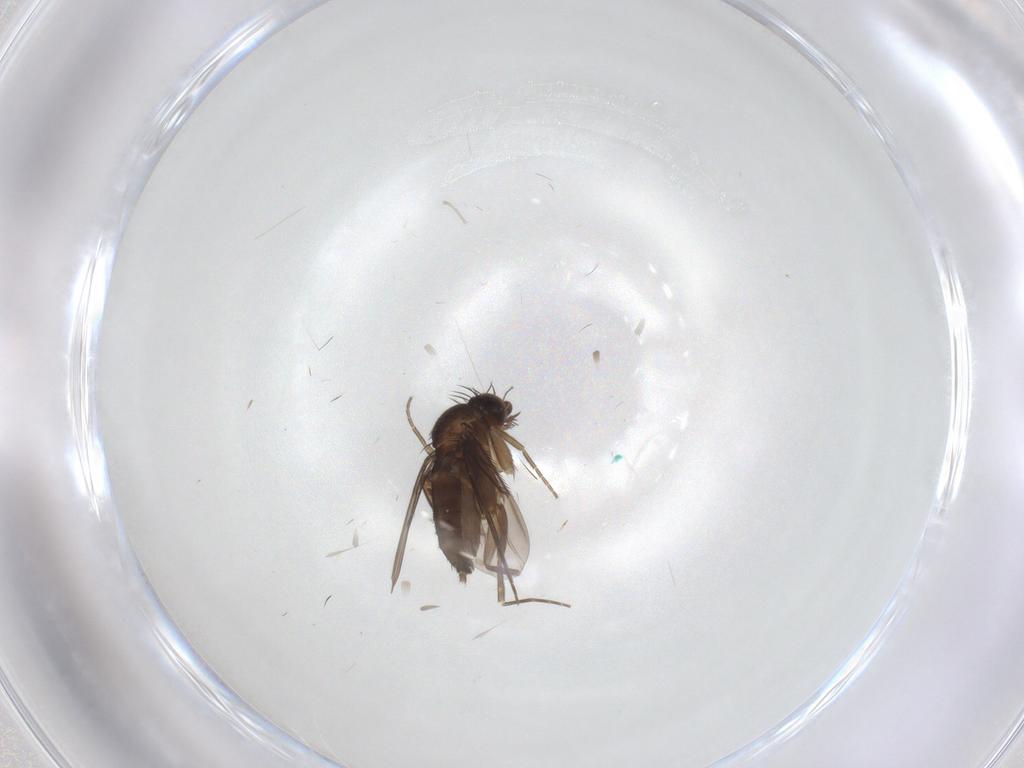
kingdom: Animalia
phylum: Arthropoda
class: Insecta
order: Diptera
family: Phoridae
